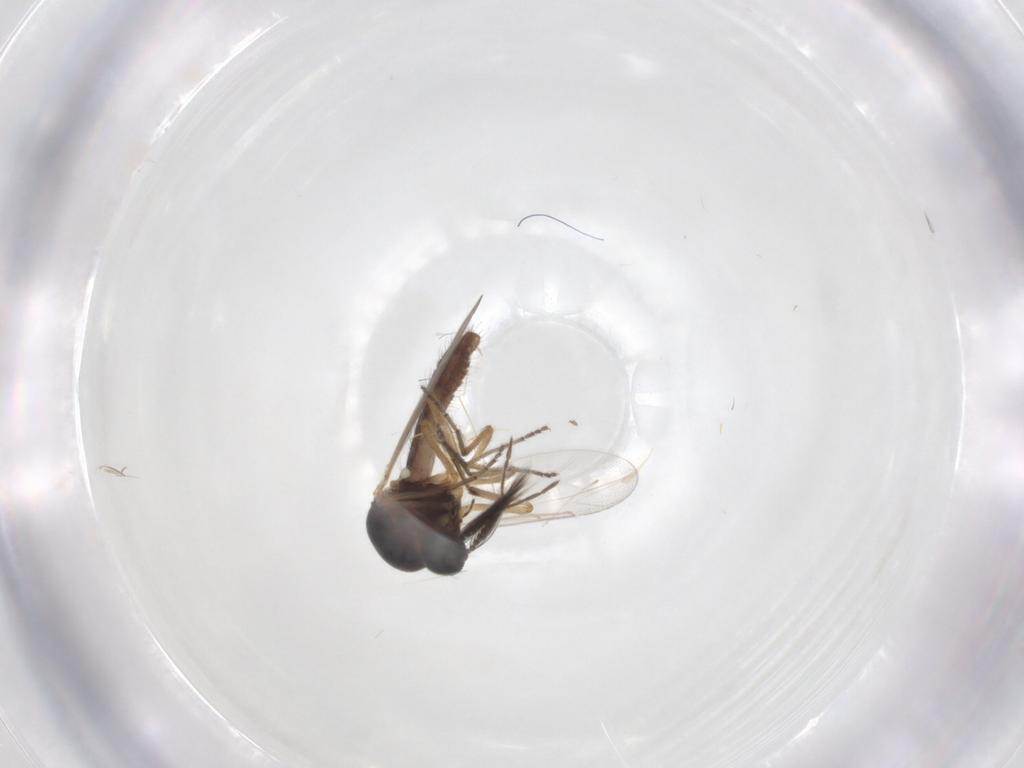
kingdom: Animalia
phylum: Arthropoda
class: Insecta
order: Diptera
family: Ceratopogonidae
